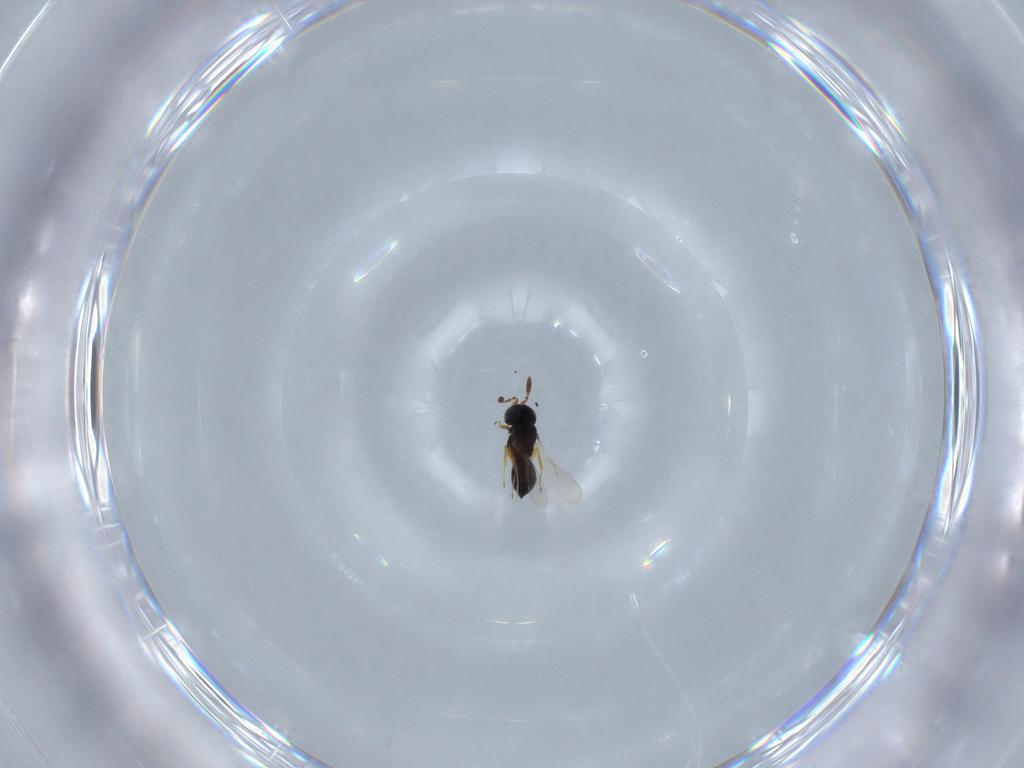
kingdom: Animalia
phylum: Arthropoda
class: Insecta
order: Hymenoptera
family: Scelionidae
